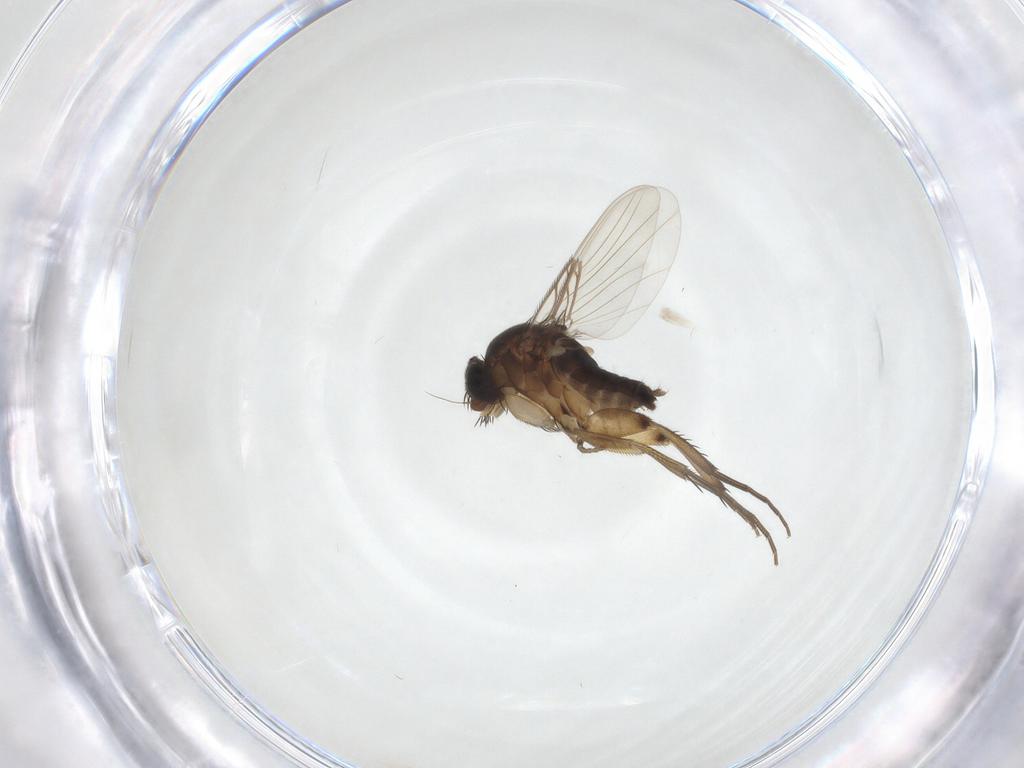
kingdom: Animalia
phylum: Arthropoda
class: Insecta
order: Diptera
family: Phoridae
